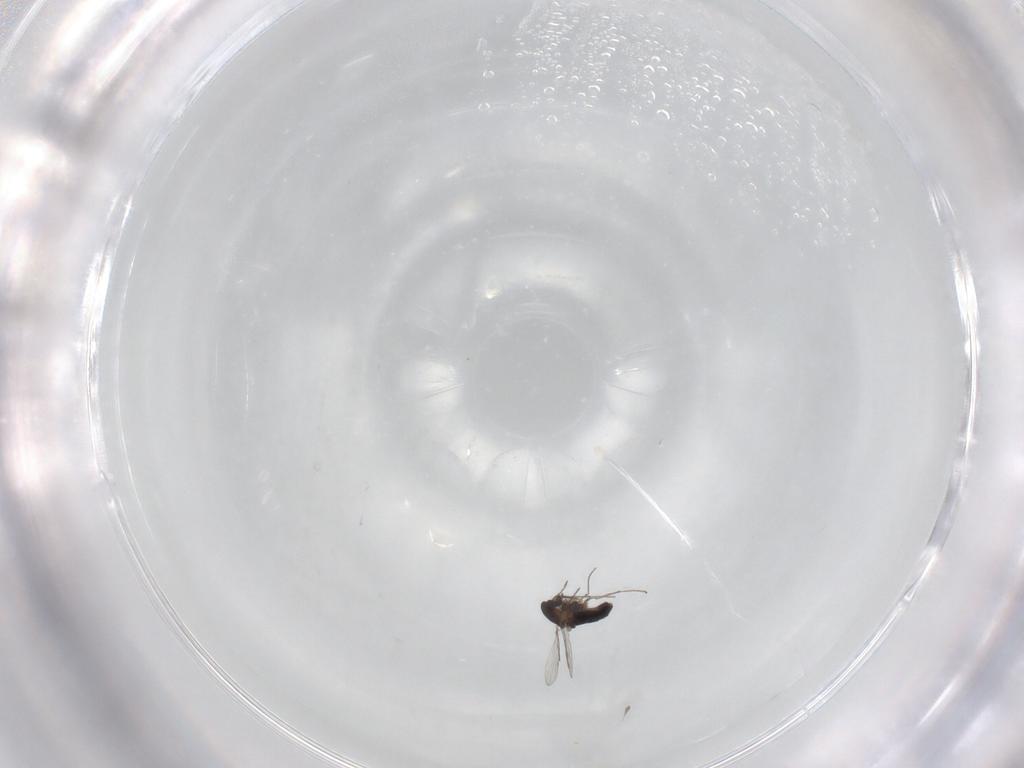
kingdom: Animalia
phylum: Arthropoda
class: Insecta
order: Diptera
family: Chironomidae
